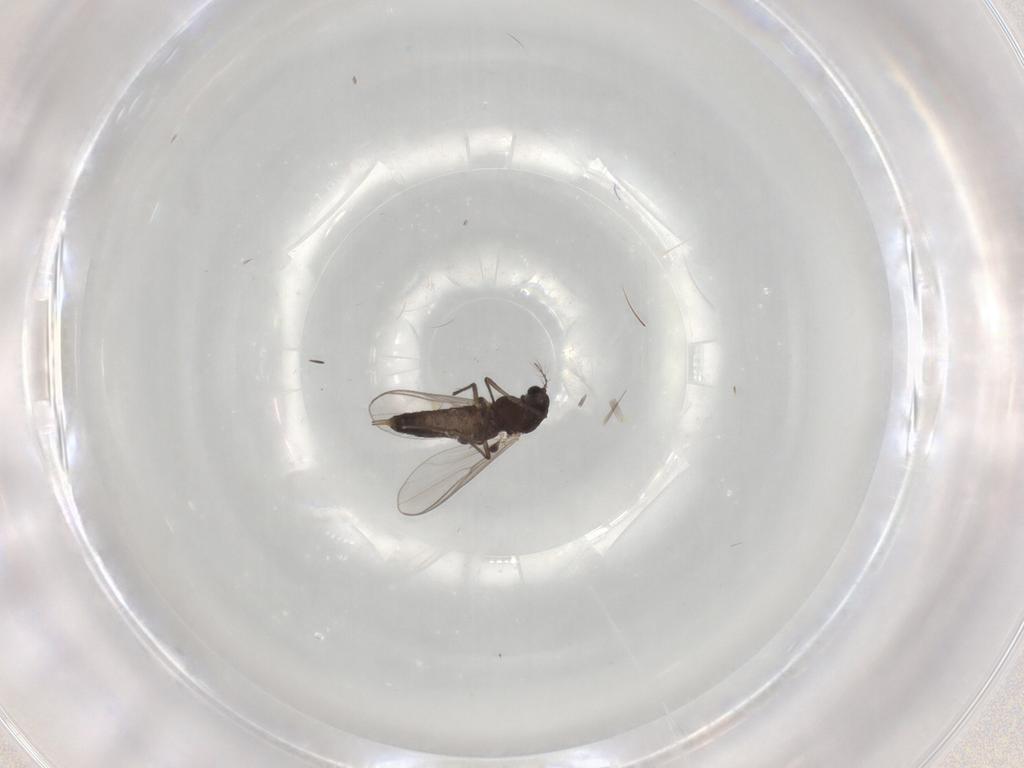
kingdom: Animalia
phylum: Arthropoda
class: Insecta
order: Diptera
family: Chironomidae
